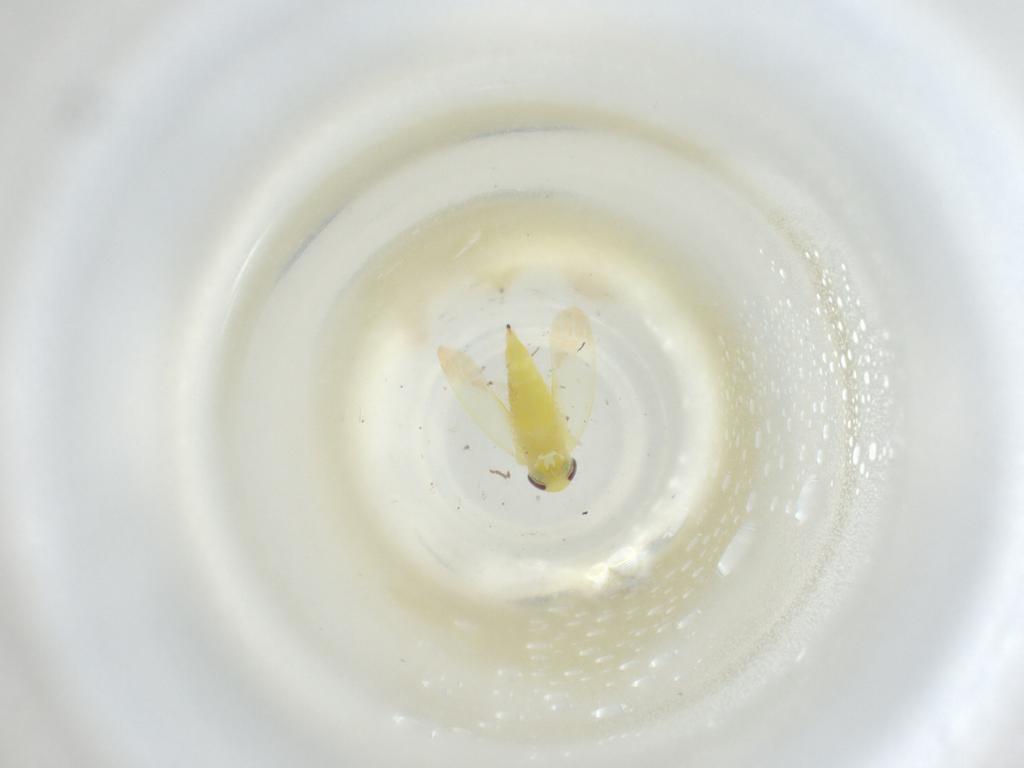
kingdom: Animalia
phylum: Arthropoda
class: Insecta
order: Hemiptera
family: Cicadellidae
